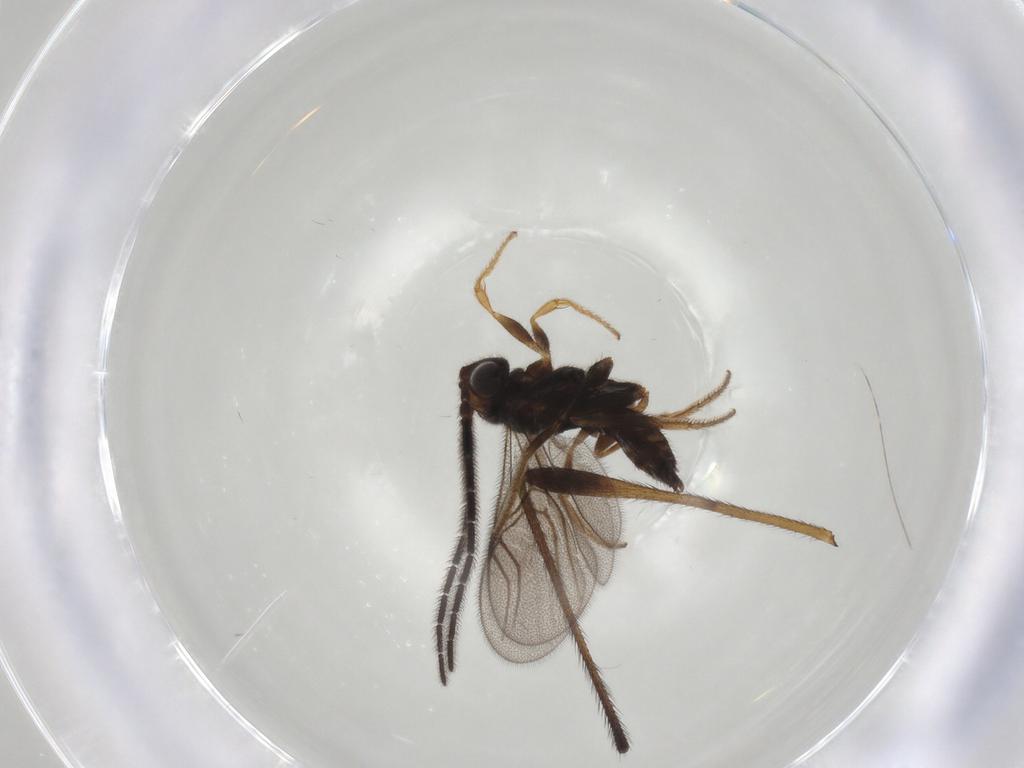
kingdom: Animalia
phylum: Arthropoda
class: Insecta
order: Hymenoptera
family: Dryinidae
